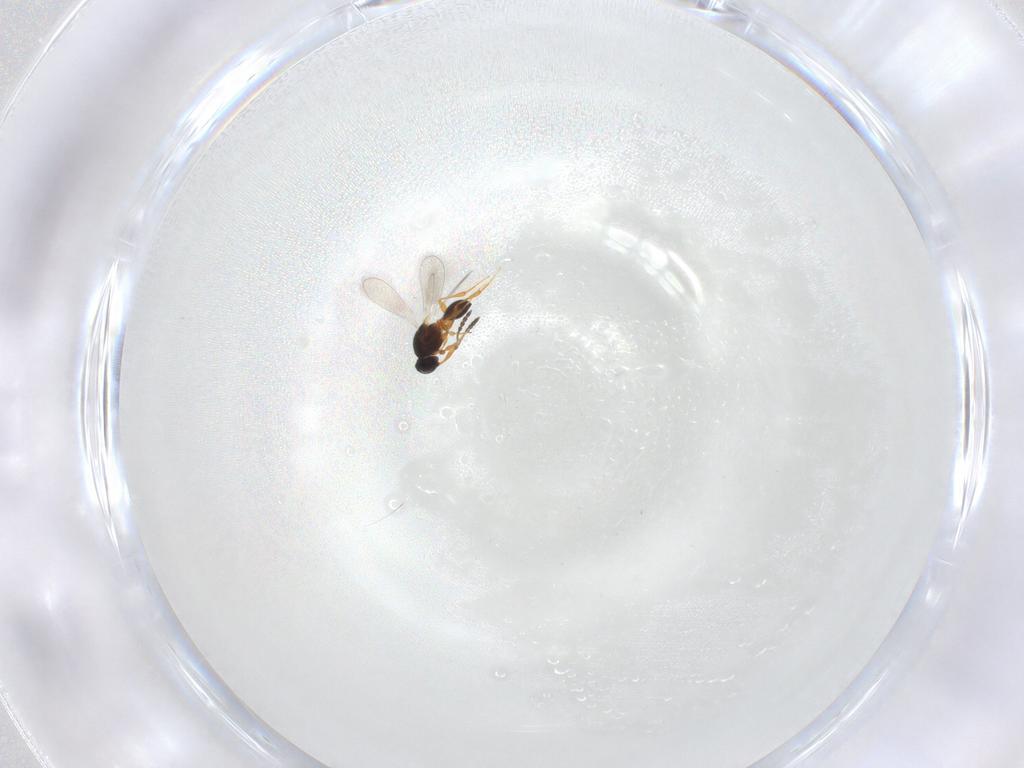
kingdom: Animalia
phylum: Arthropoda
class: Insecta
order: Hymenoptera
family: Platygastridae
